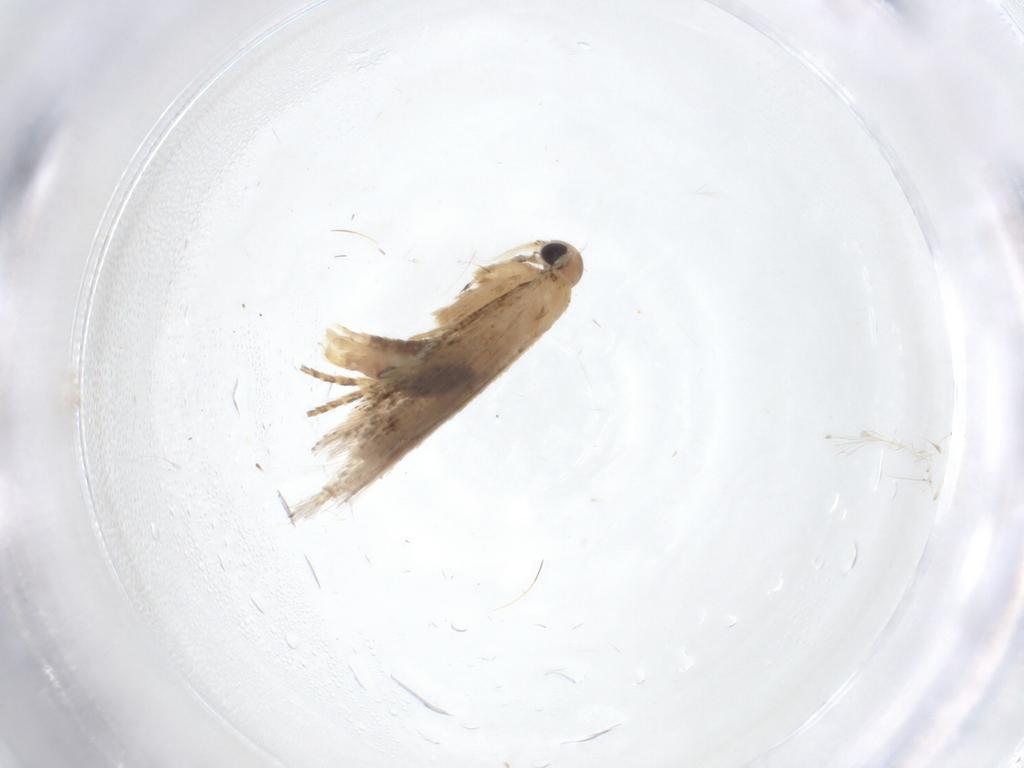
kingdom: Animalia
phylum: Arthropoda
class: Insecta
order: Lepidoptera
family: Gelechiidae
